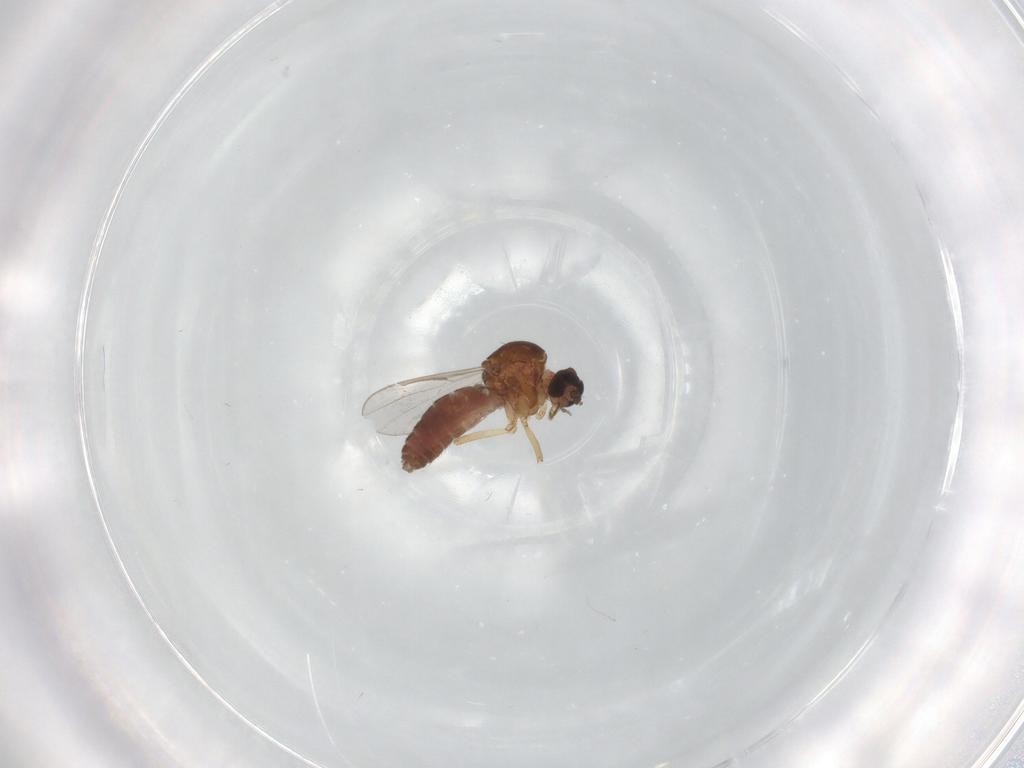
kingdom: Animalia
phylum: Arthropoda
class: Insecta
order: Diptera
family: Ceratopogonidae
